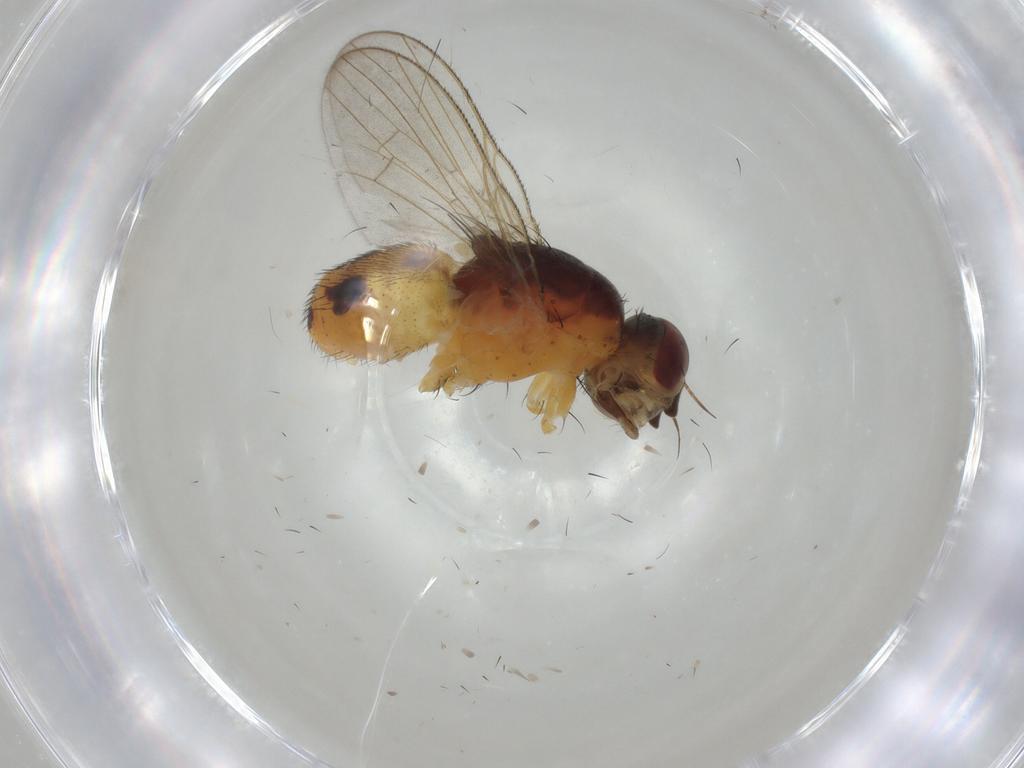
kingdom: Animalia
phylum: Arthropoda
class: Insecta
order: Diptera
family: Muscidae
